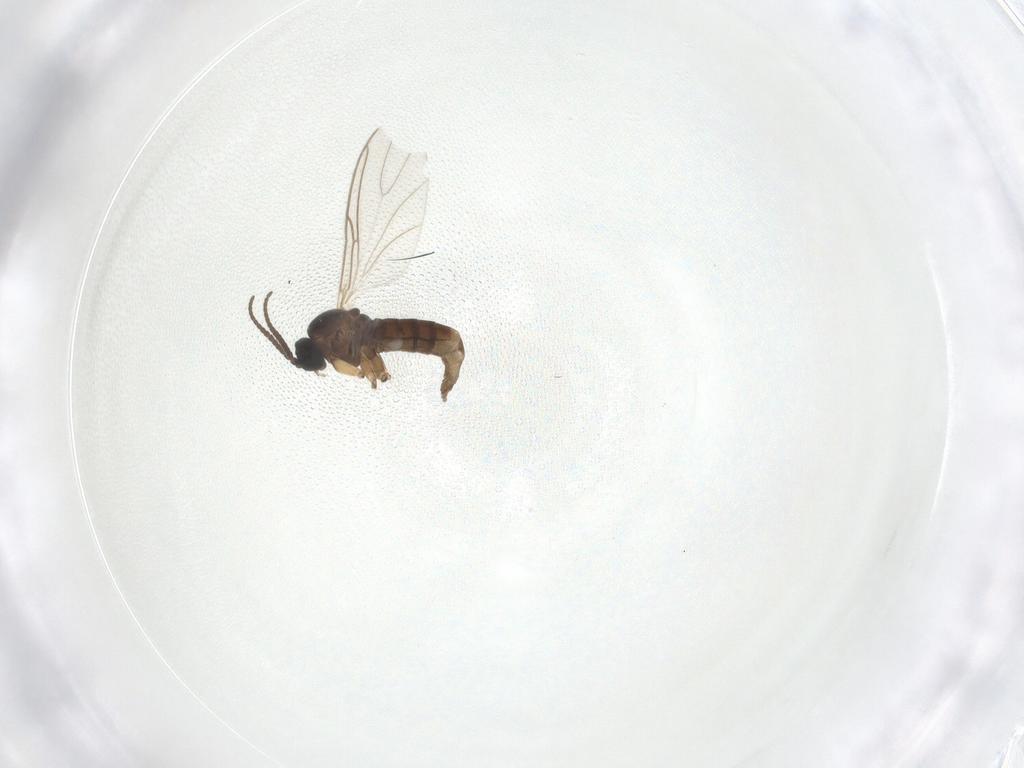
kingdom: Animalia
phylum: Arthropoda
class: Insecta
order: Diptera
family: Sciaridae
